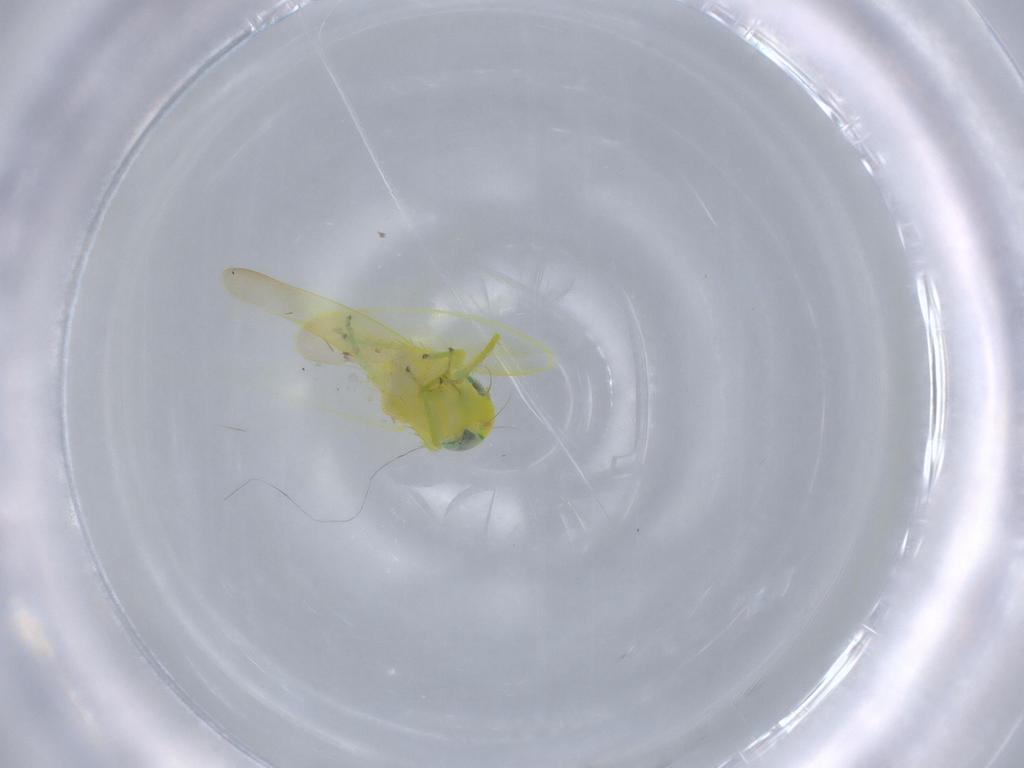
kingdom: Animalia
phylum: Arthropoda
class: Insecta
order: Hemiptera
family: Cicadellidae
